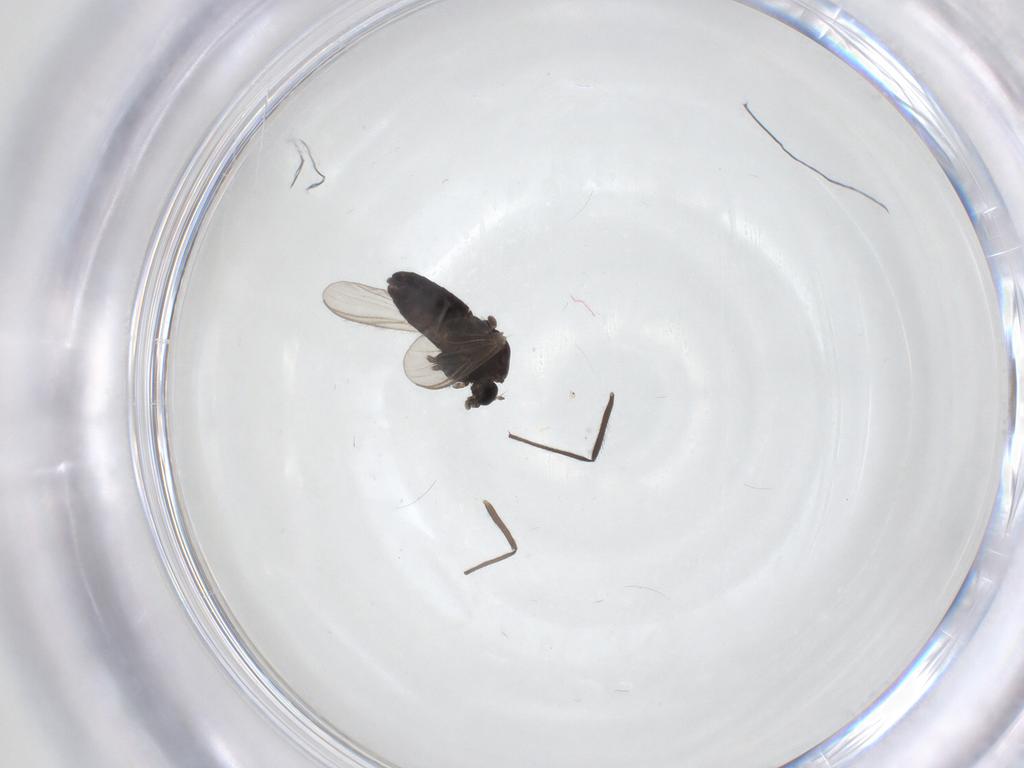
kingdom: Animalia
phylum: Arthropoda
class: Insecta
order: Diptera
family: Chironomidae
